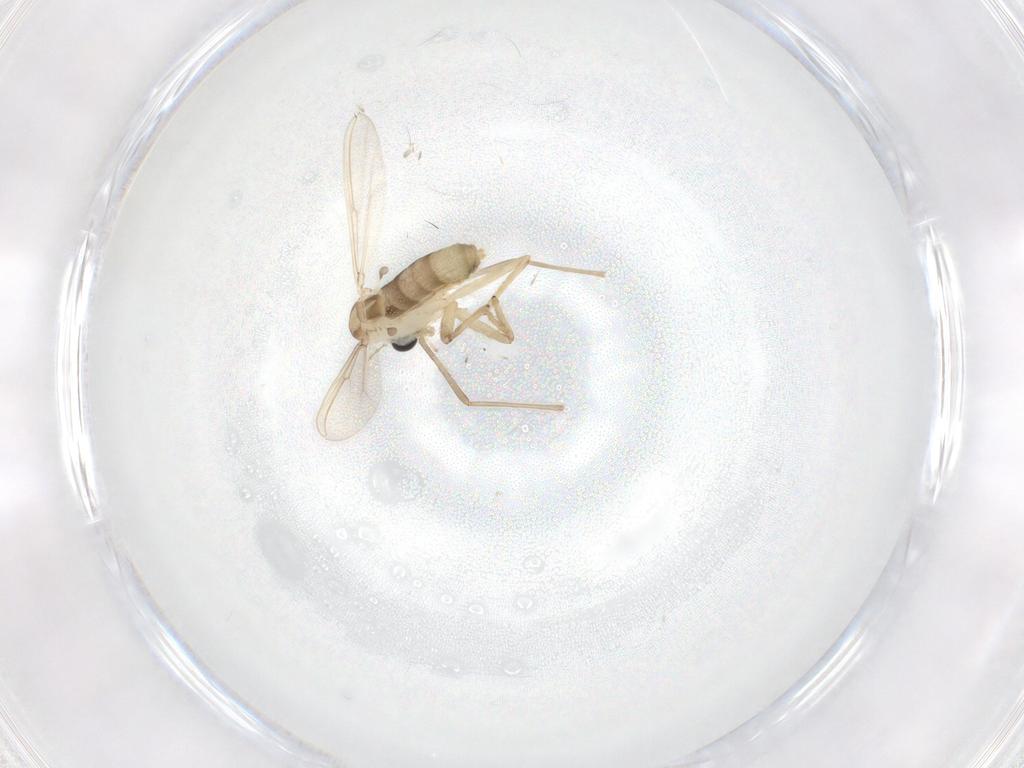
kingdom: Animalia
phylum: Arthropoda
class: Insecta
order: Diptera
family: Chironomidae
